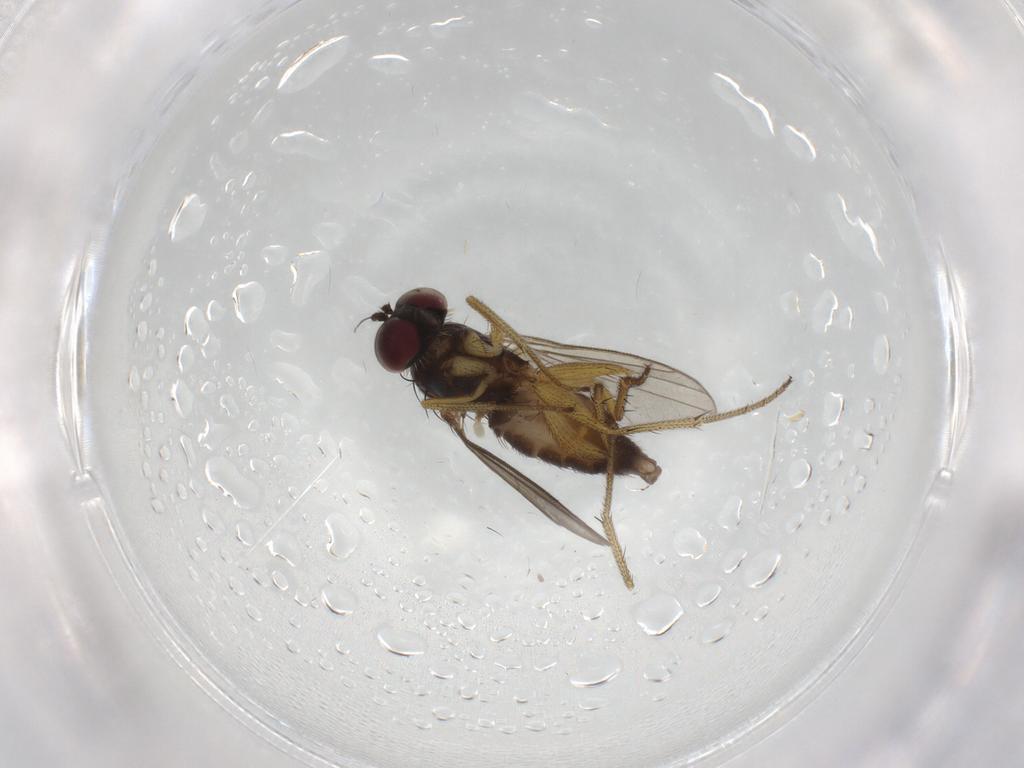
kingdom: Animalia
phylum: Arthropoda
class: Insecta
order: Diptera
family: Dolichopodidae
